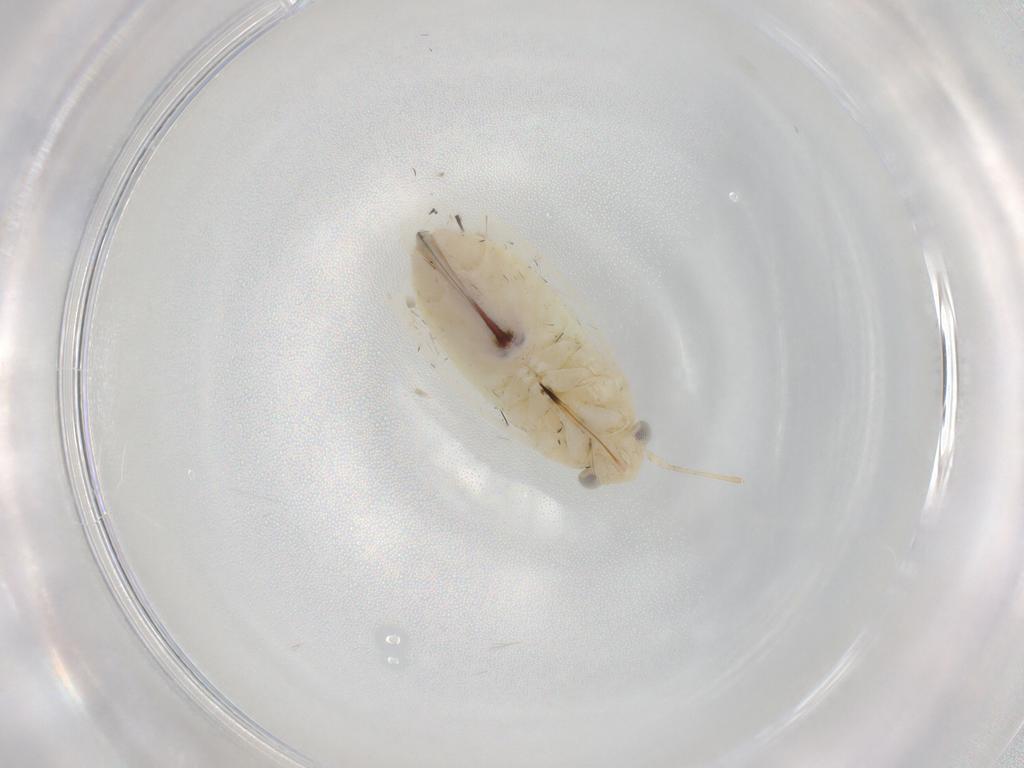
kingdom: Animalia
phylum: Arthropoda
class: Insecta
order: Hemiptera
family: Miridae
